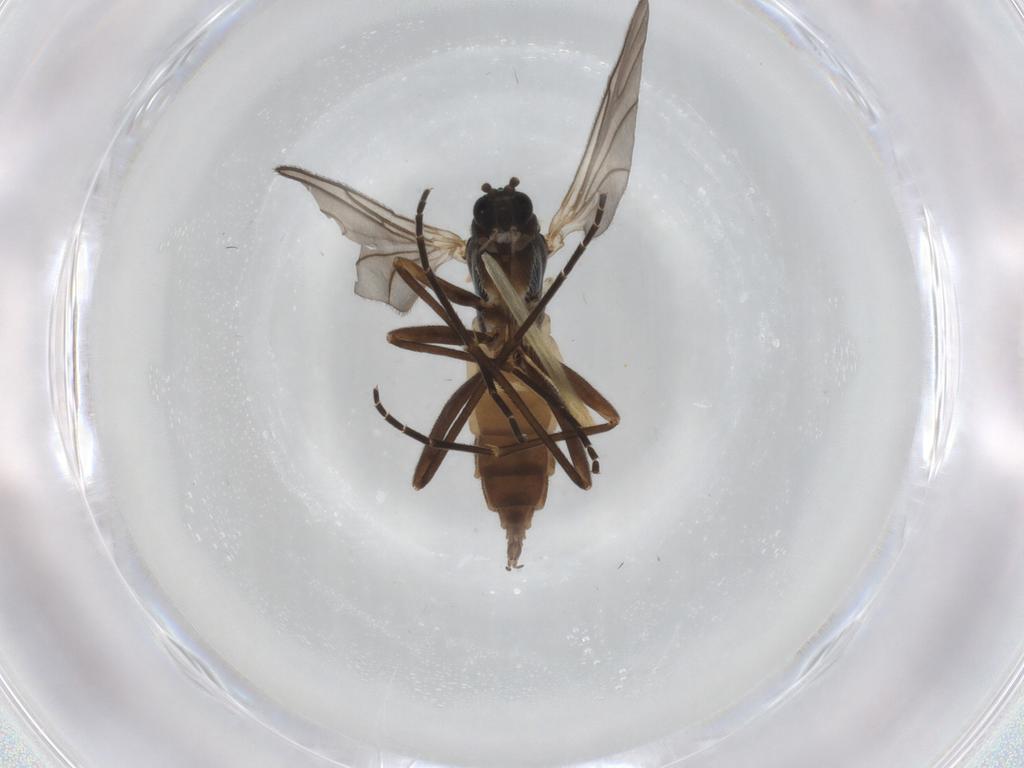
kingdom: Animalia
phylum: Arthropoda
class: Insecta
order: Diptera
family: Sciaridae
